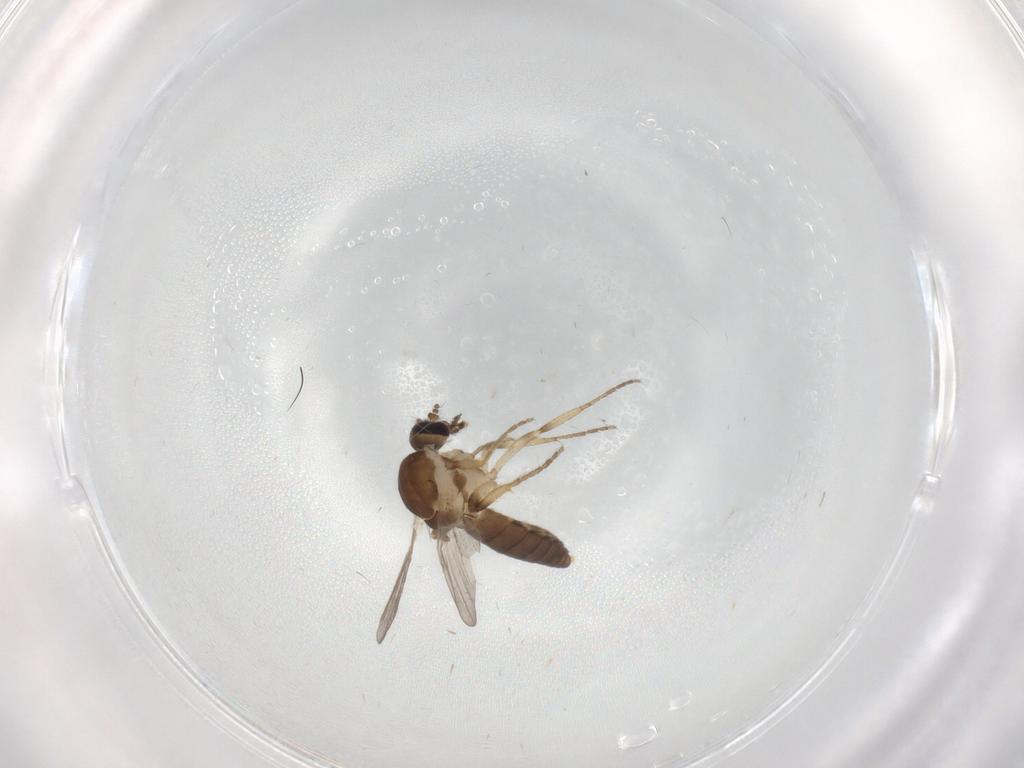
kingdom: Animalia
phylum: Arthropoda
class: Insecta
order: Diptera
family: Ceratopogonidae
